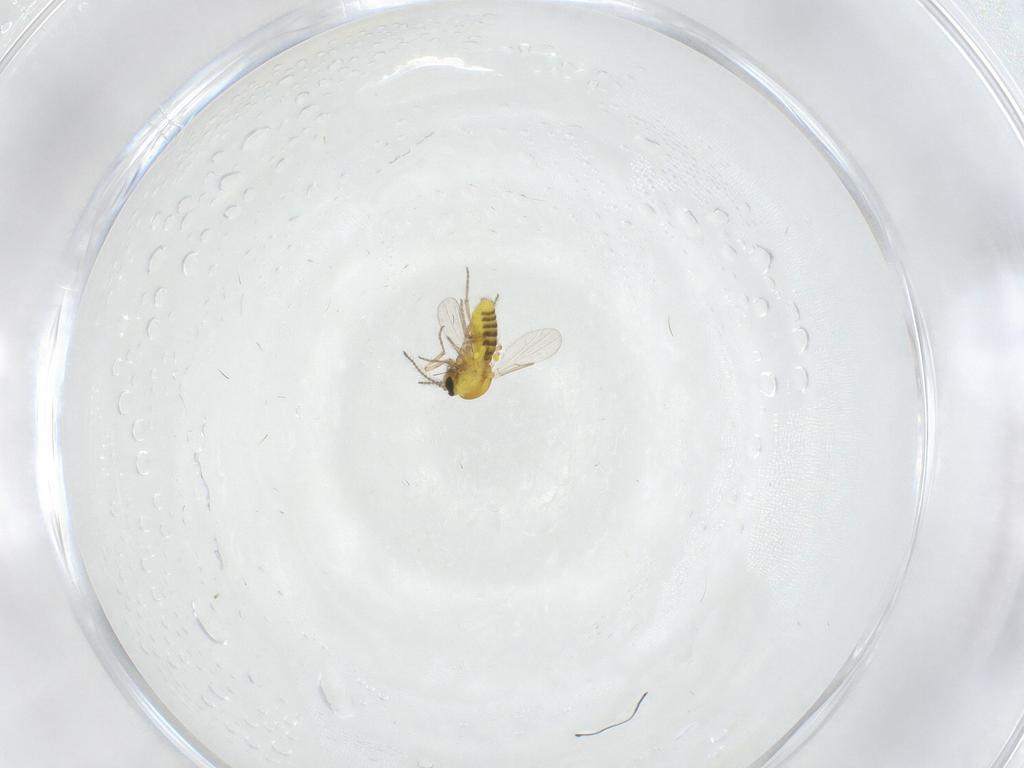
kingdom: Animalia
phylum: Arthropoda
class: Insecta
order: Diptera
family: Ceratopogonidae
